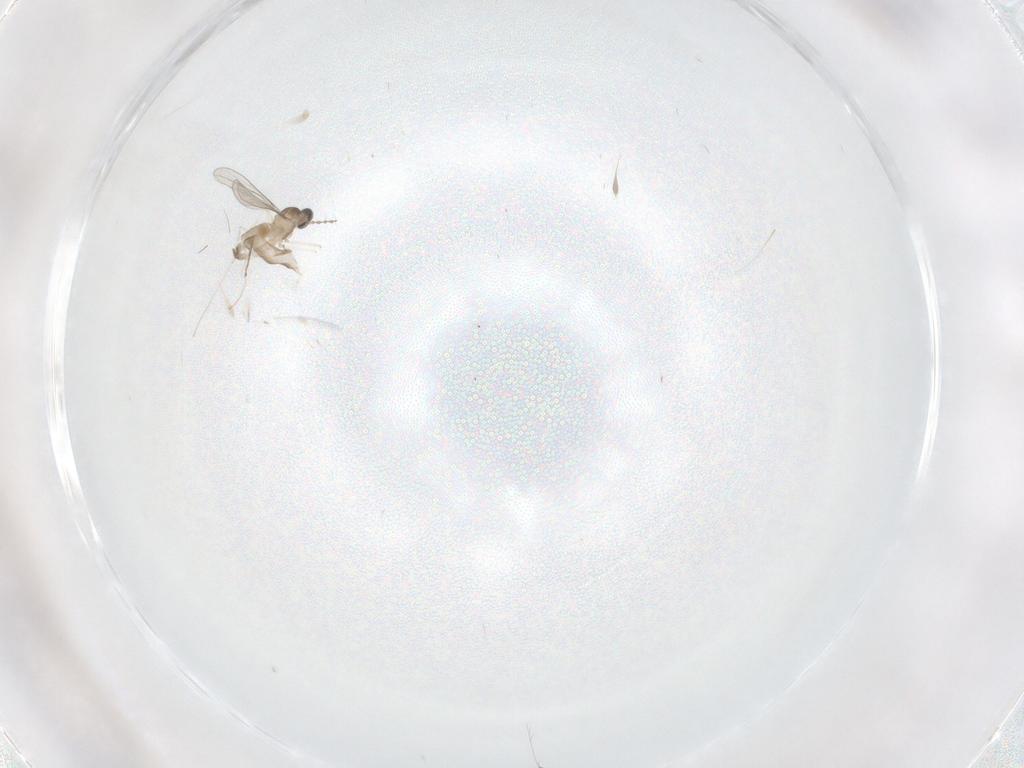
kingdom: Animalia
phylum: Arthropoda
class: Insecta
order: Diptera
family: Cecidomyiidae
